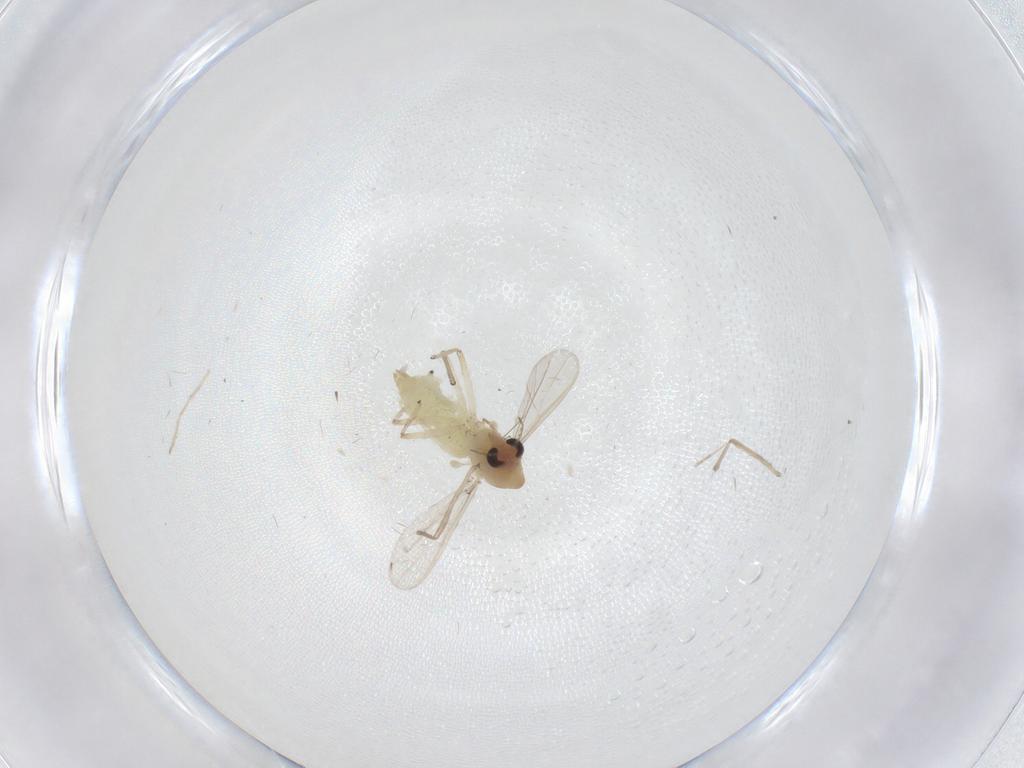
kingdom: Animalia
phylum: Arthropoda
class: Insecta
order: Diptera
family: Chironomidae
